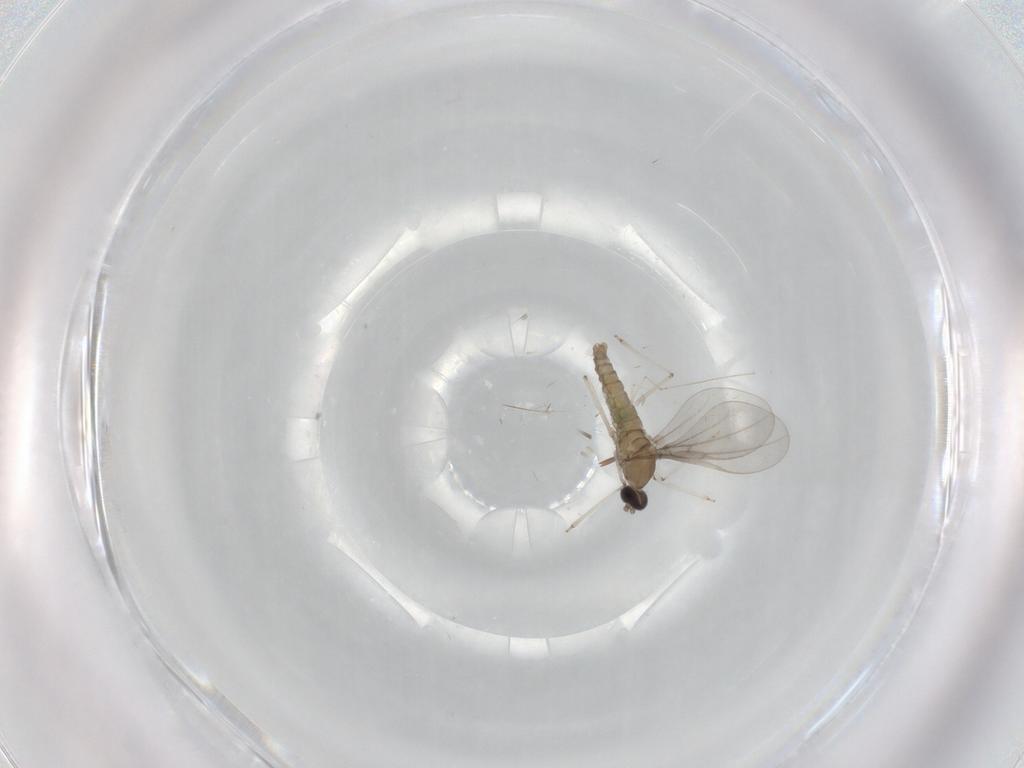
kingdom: Animalia
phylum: Arthropoda
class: Insecta
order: Diptera
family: Cecidomyiidae
